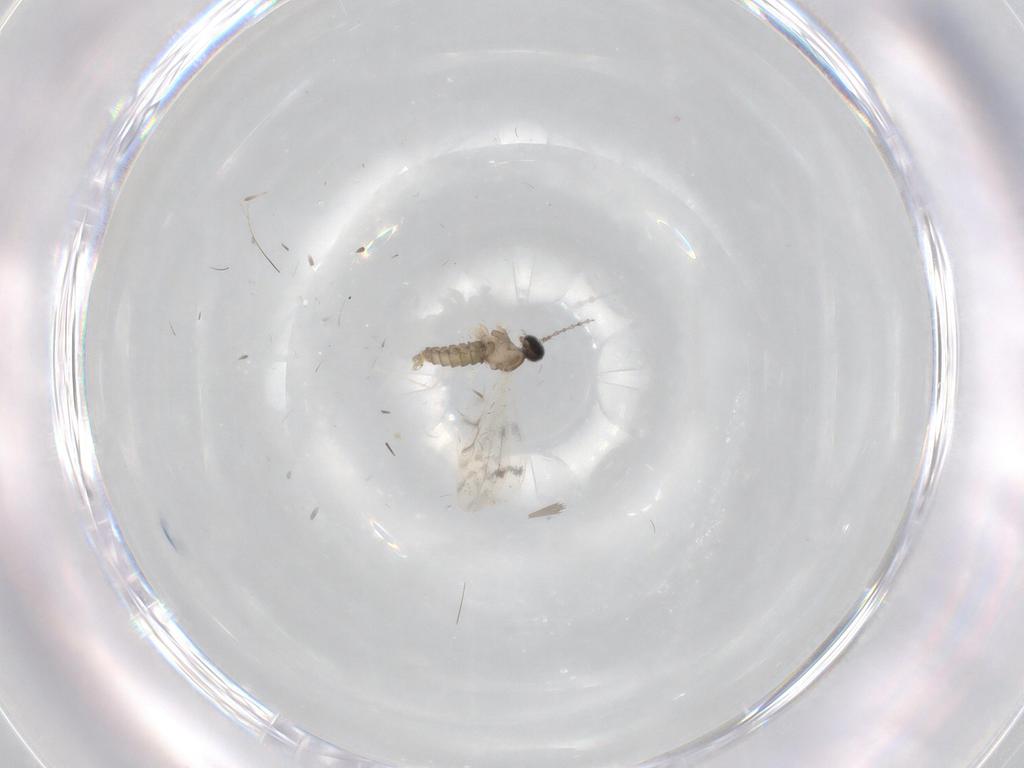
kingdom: Animalia
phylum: Arthropoda
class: Insecta
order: Diptera
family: Cecidomyiidae
